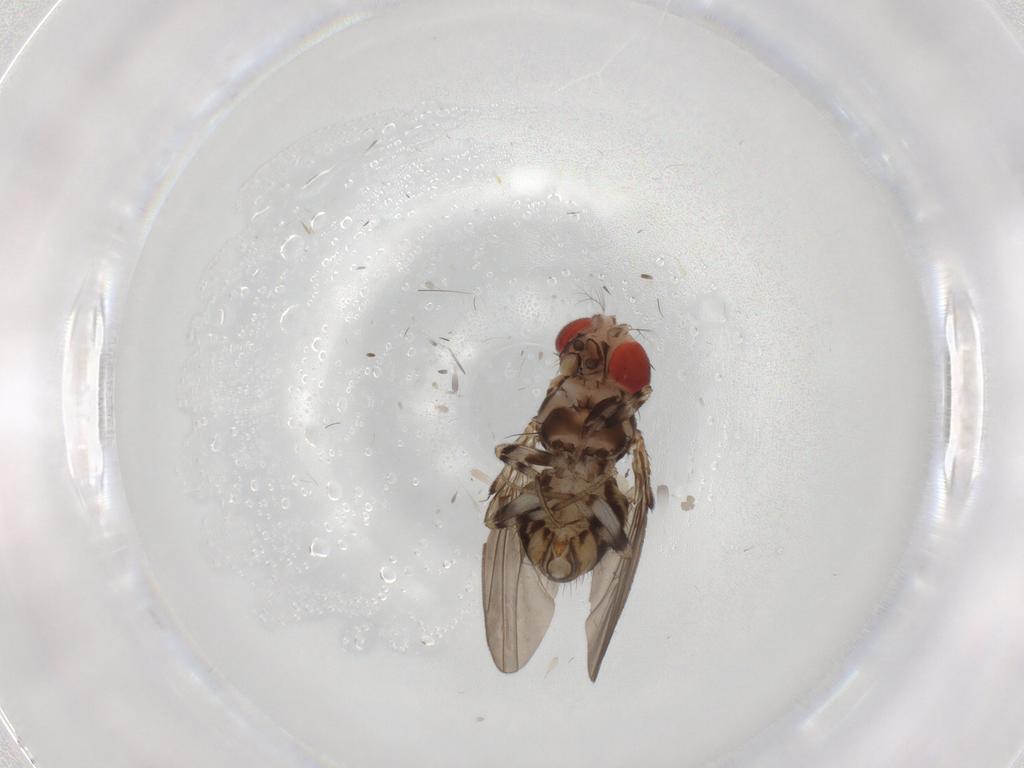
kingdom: Animalia
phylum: Arthropoda
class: Insecta
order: Diptera
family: Drosophilidae
